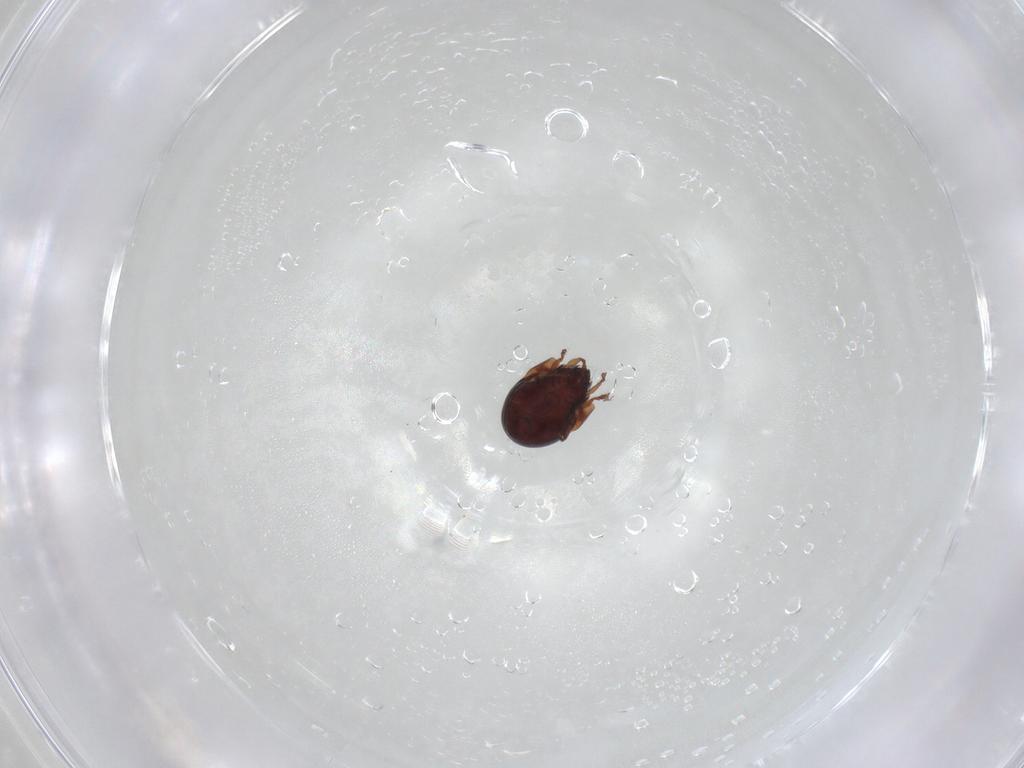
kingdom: Animalia
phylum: Arthropoda
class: Arachnida
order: Sarcoptiformes
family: Humerobatidae
